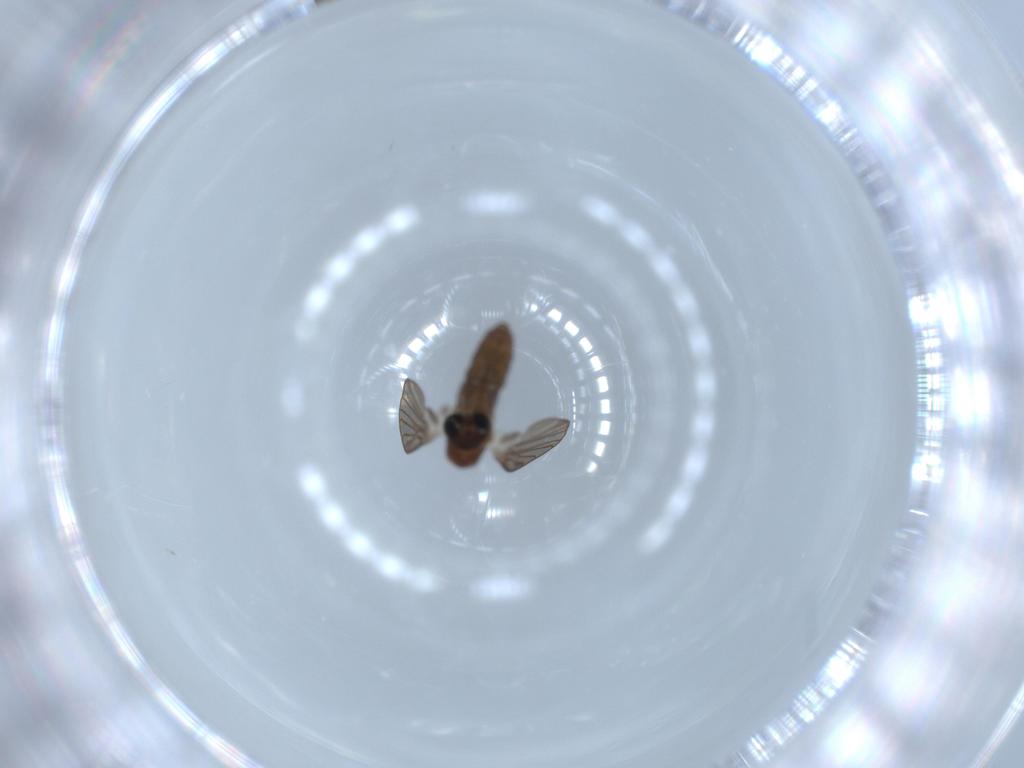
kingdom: Animalia
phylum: Arthropoda
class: Insecta
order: Diptera
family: Psychodidae
